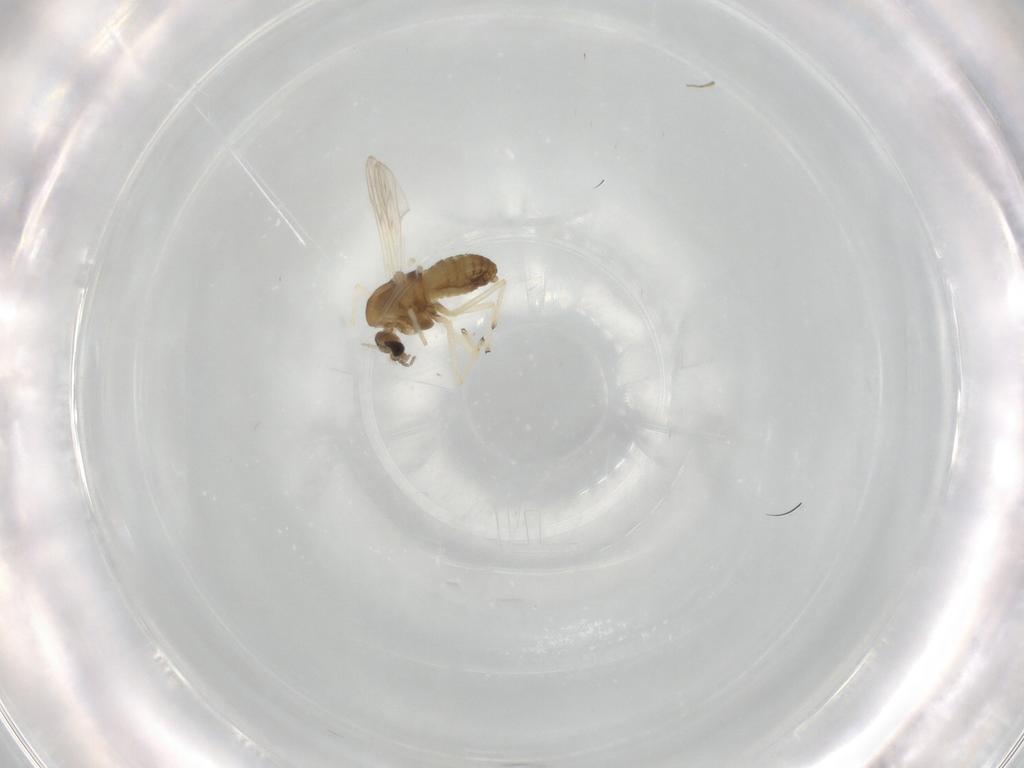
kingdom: Animalia
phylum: Arthropoda
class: Insecta
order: Diptera
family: Chironomidae
